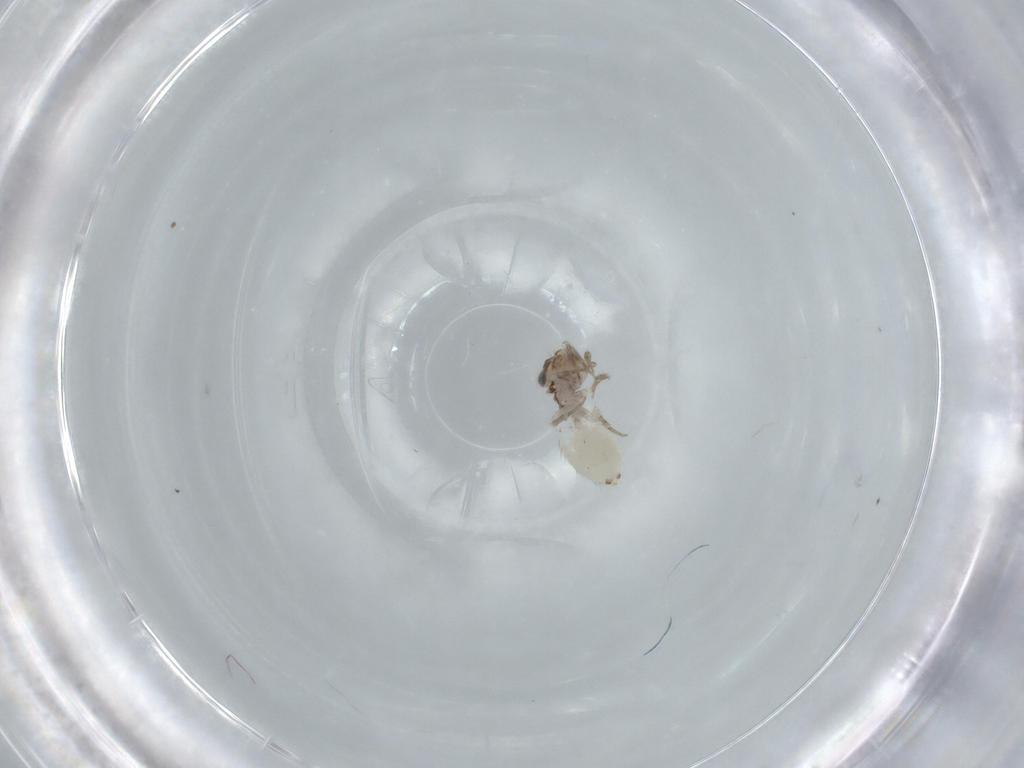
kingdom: Animalia
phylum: Arthropoda
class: Insecta
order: Psocodea
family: Lepidopsocidae
